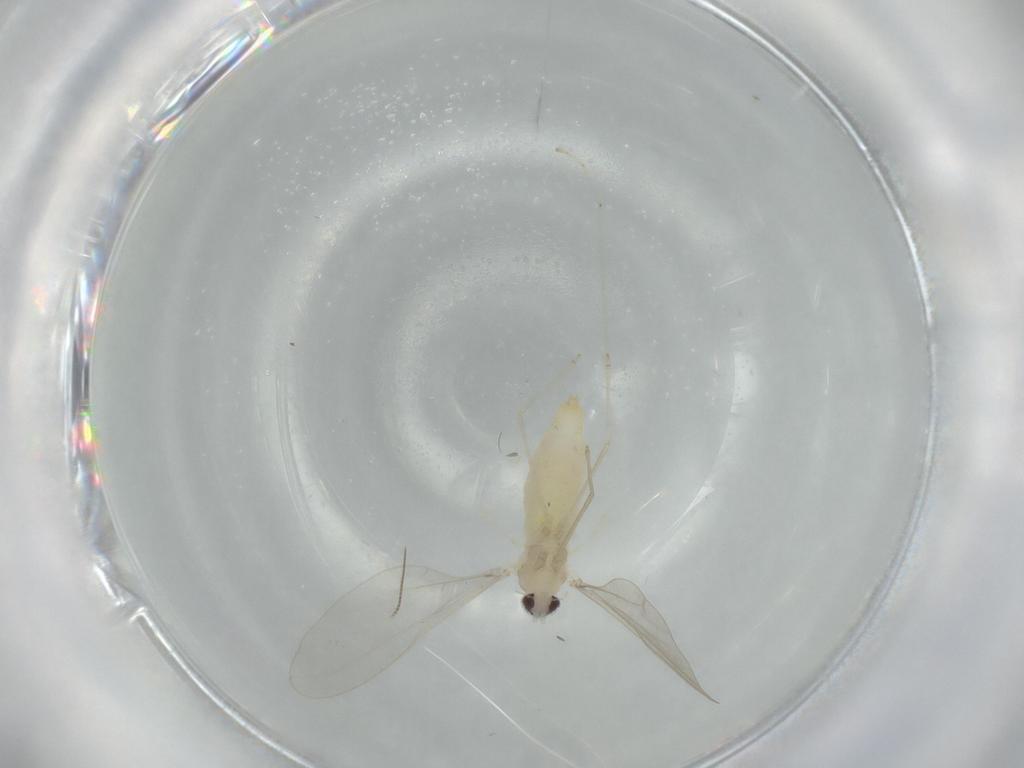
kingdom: Animalia
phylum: Arthropoda
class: Insecta
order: Diptera
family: Cecidomyiidae
